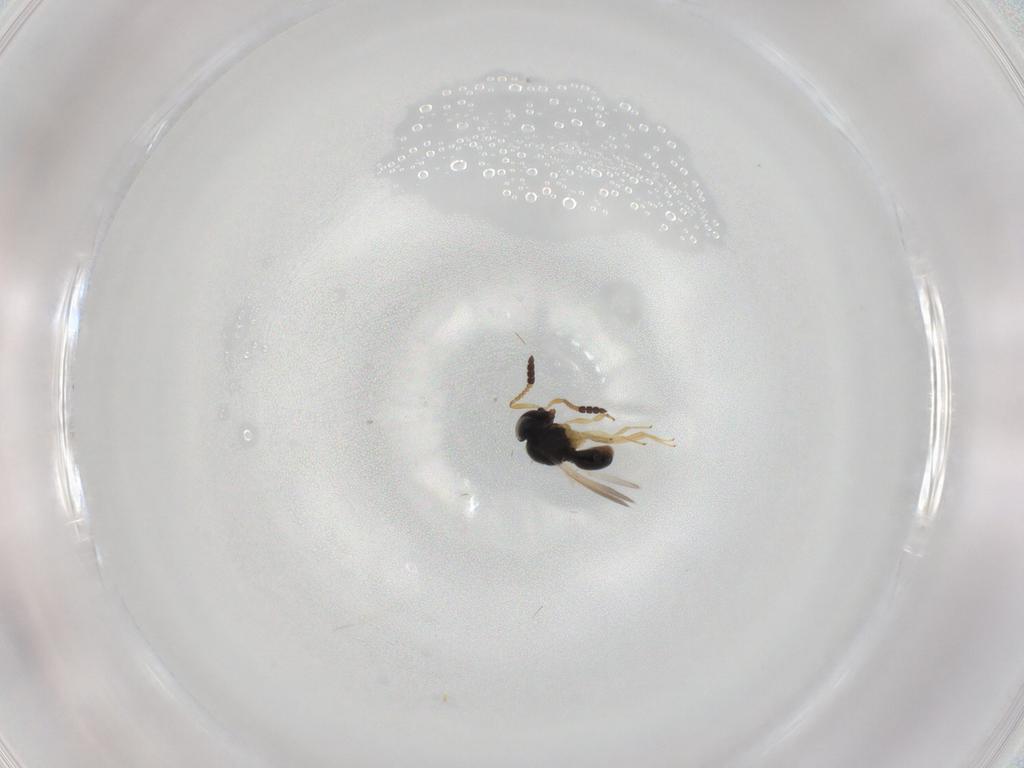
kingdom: Animalia
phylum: Arthropoda
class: Insecta
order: Hymenoptera
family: Scelionidae
